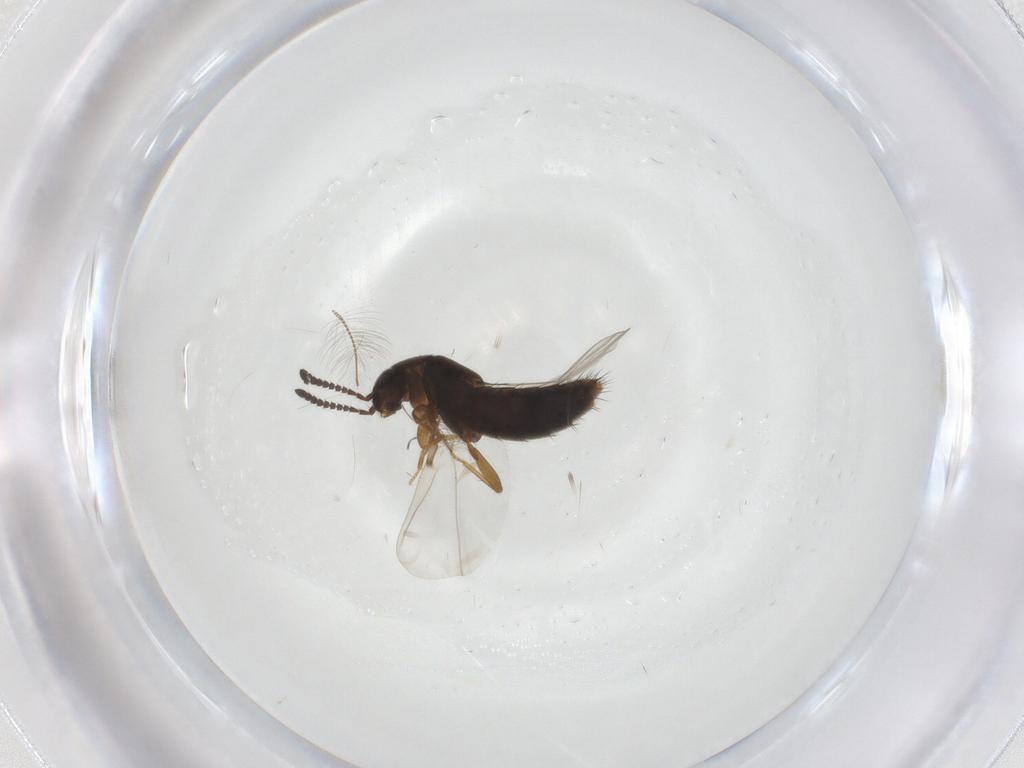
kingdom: Animalia
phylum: Arthropoda
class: Insecta
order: Coleoptera
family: Staphylinidae
